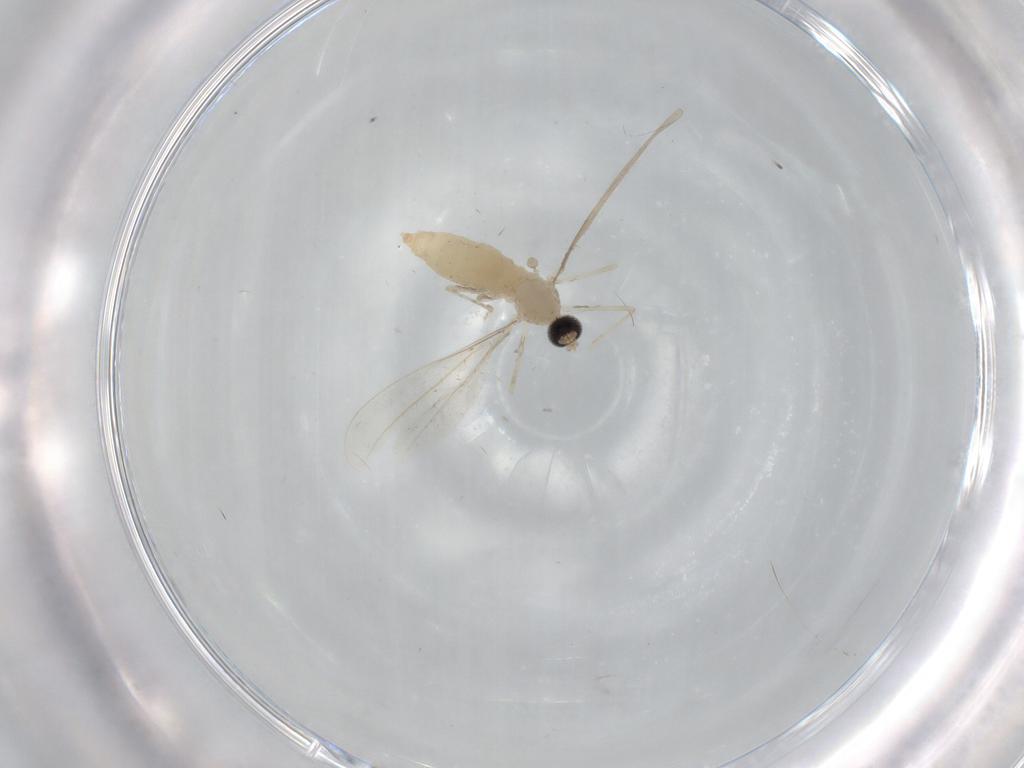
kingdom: Animalia
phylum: Arthropoda
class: Insecta
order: Diptera
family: Cecidomyiidae
